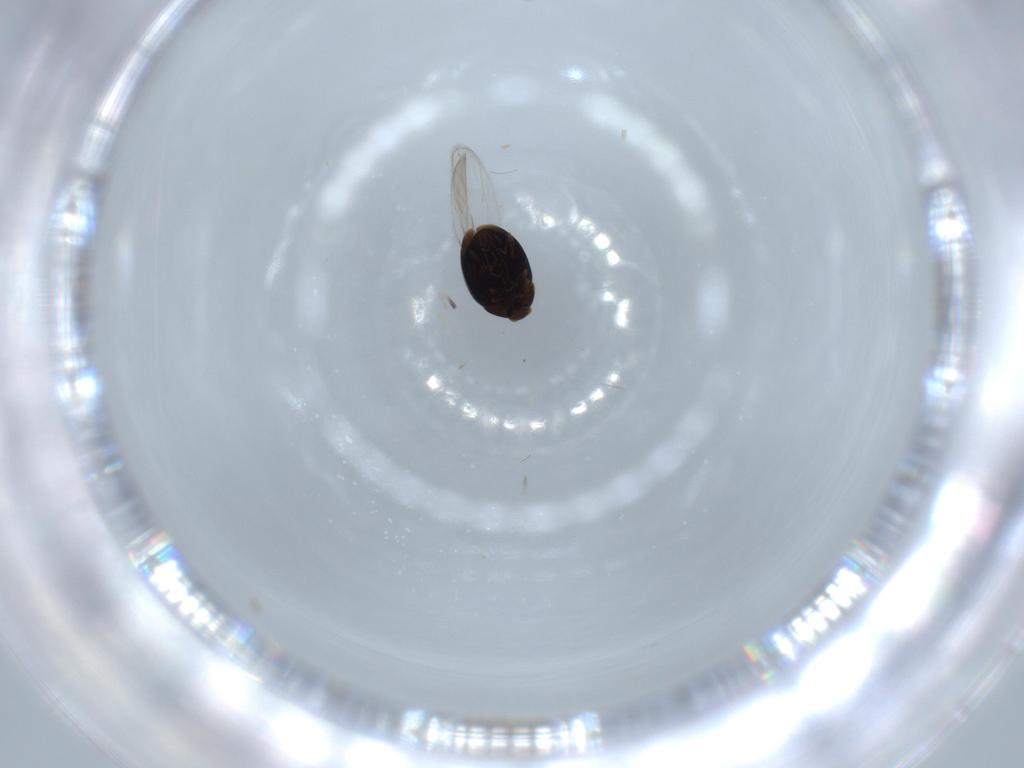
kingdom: Animalia
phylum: Arthropoda
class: Insecta
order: Coleoptera
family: Corylophidae
